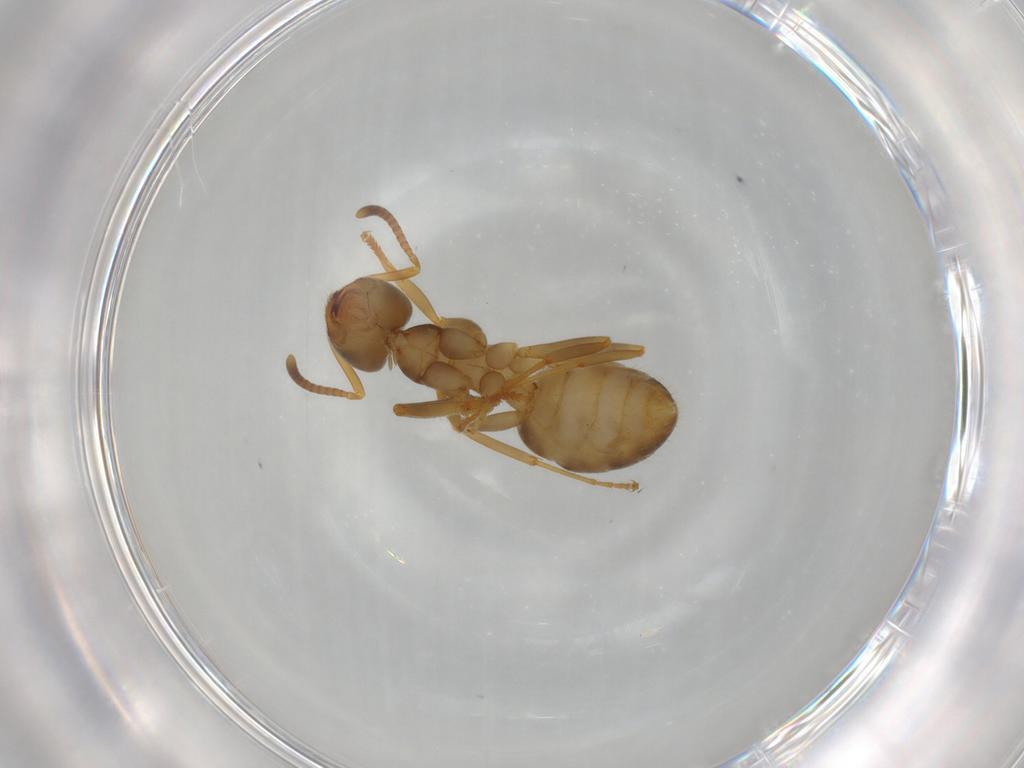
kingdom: Animalia
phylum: Arthropoda
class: Insecta
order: Hymenoptera
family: Formicidae
